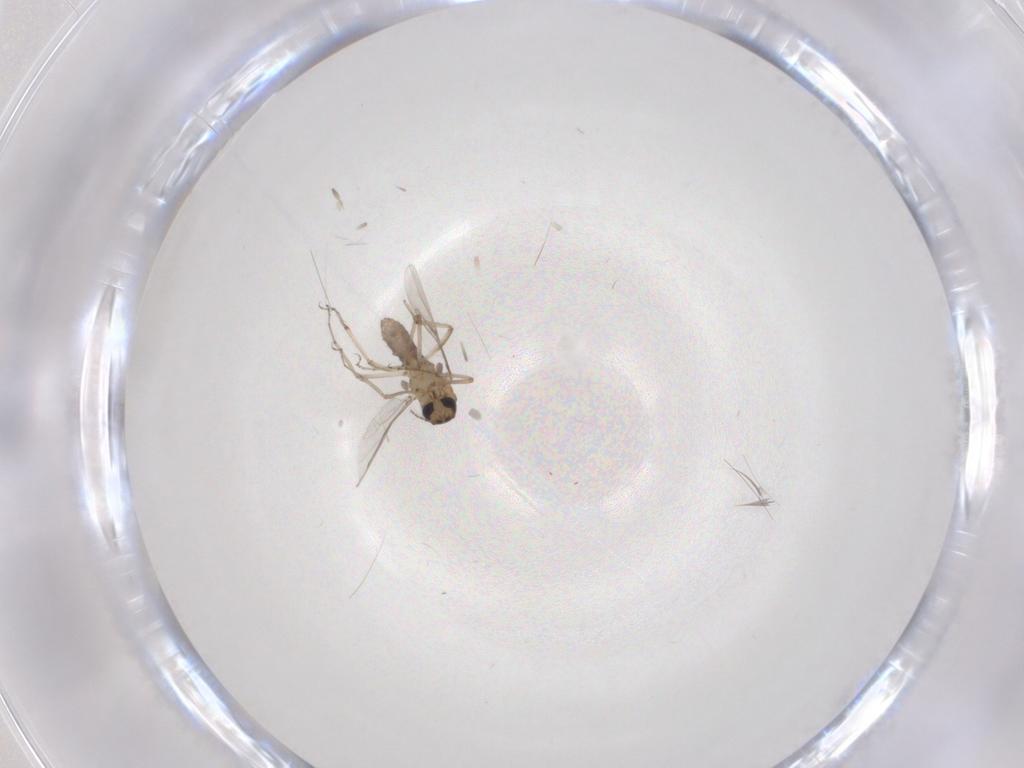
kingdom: Animalia
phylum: Arthropoda
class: Insecta
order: Diptera
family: Ceratopogonidae
